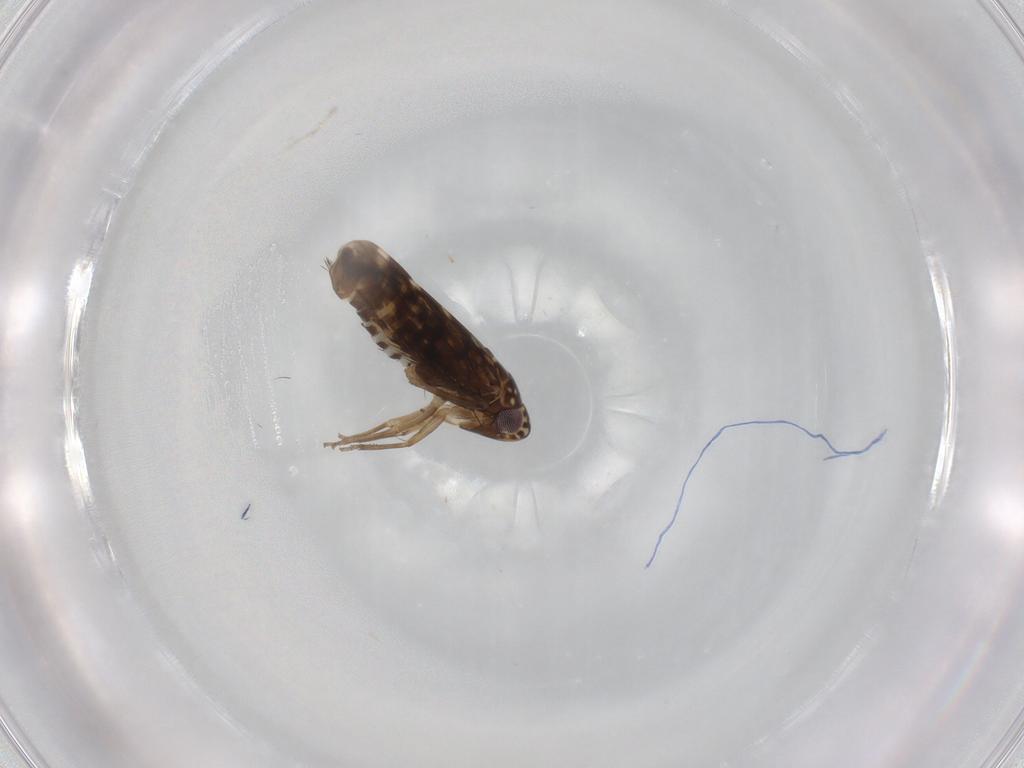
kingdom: Animalia
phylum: Arthropoda
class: Insecta
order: Hemiptera
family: Cicadellidae
